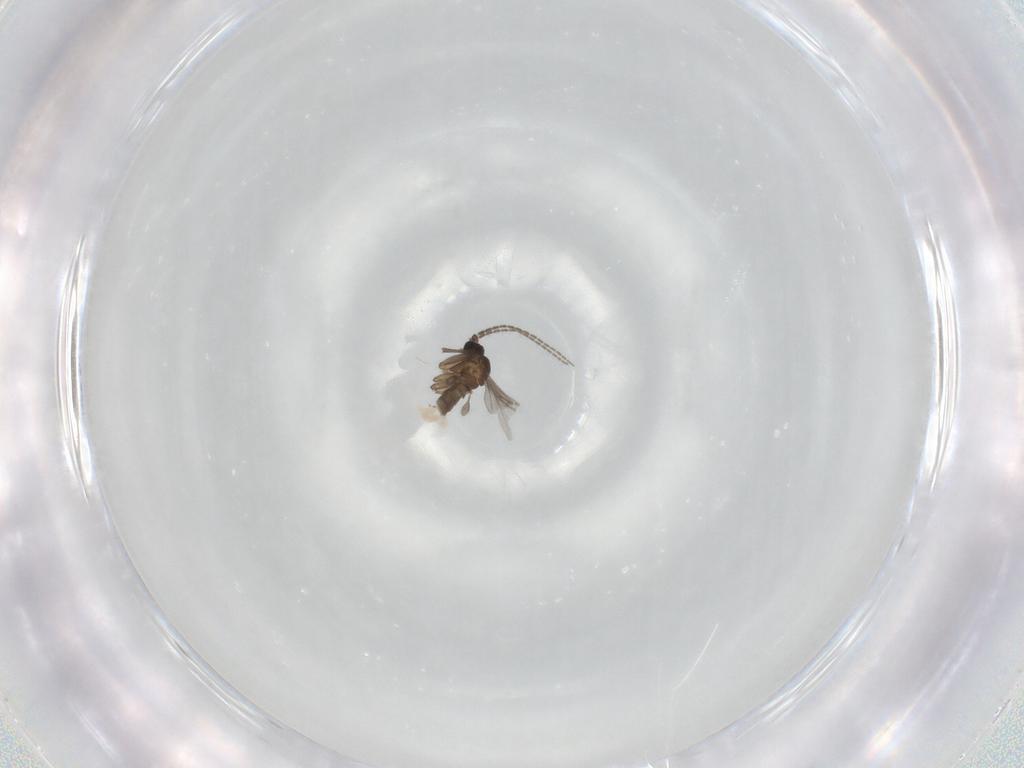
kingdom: Animalia
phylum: Arthropoda
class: Insecta
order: Diptera
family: Sciaridae
